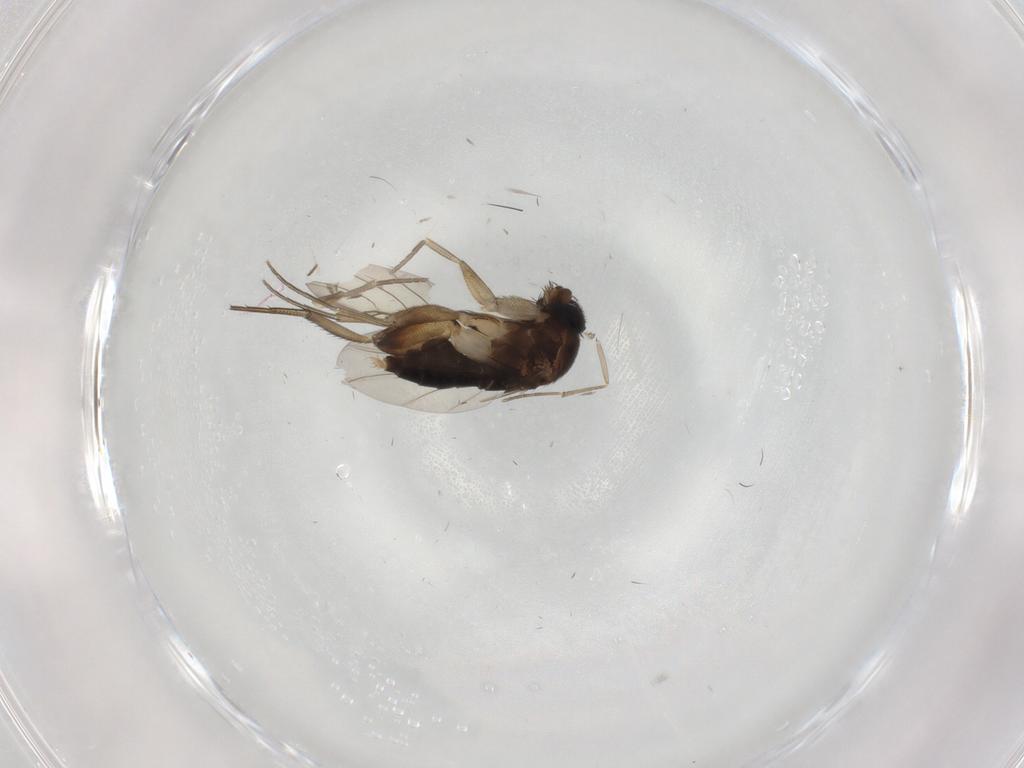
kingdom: Animalia
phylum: Arthropoda
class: Insecta
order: Diptera
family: Phoridae
